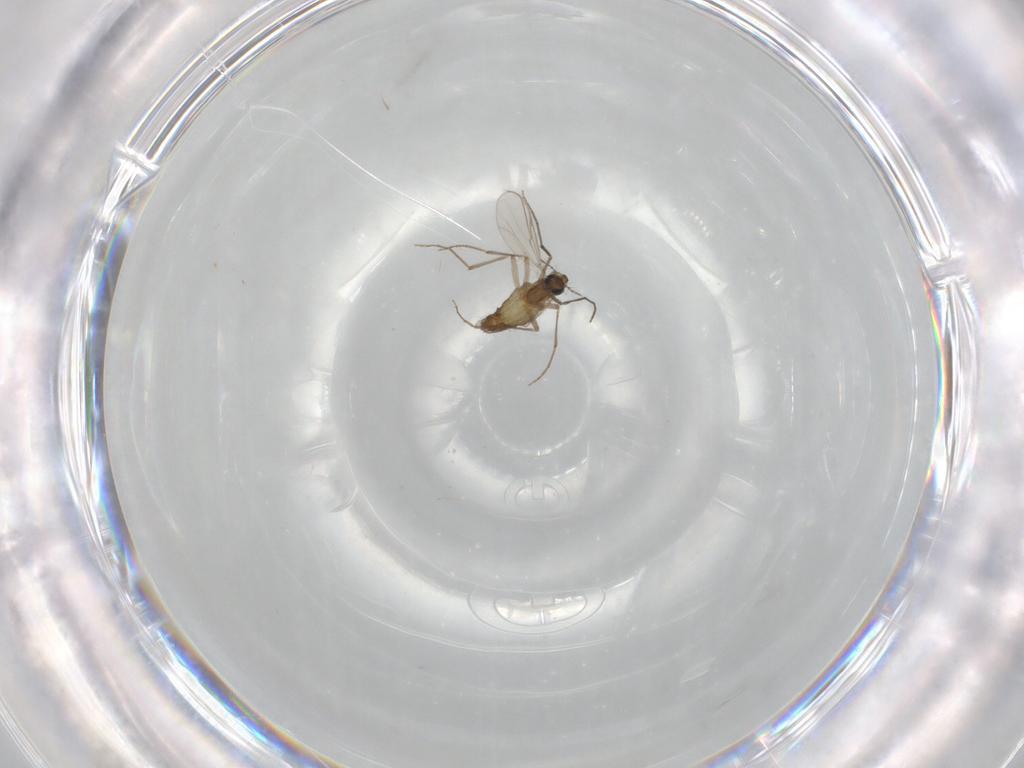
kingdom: Animalia
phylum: Arthropoda
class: Insecta
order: Diptera
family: Chironomidae
